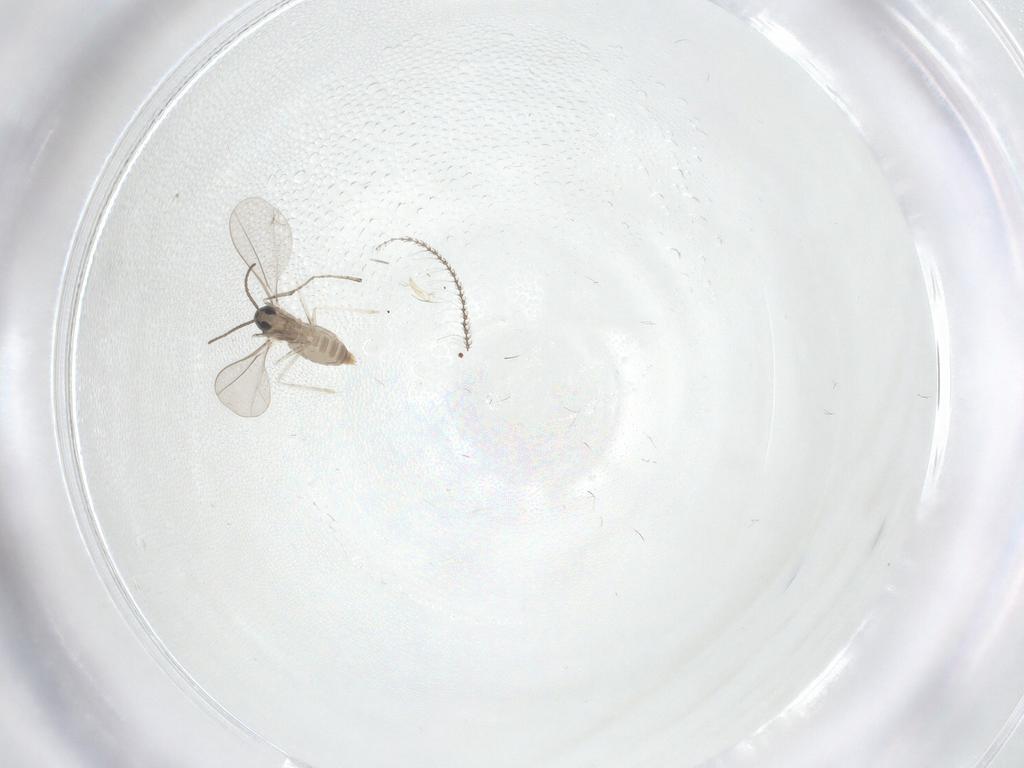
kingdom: Animalia
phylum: Arthropoda
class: Insecta
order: Diptera
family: Cecidomyiidae
